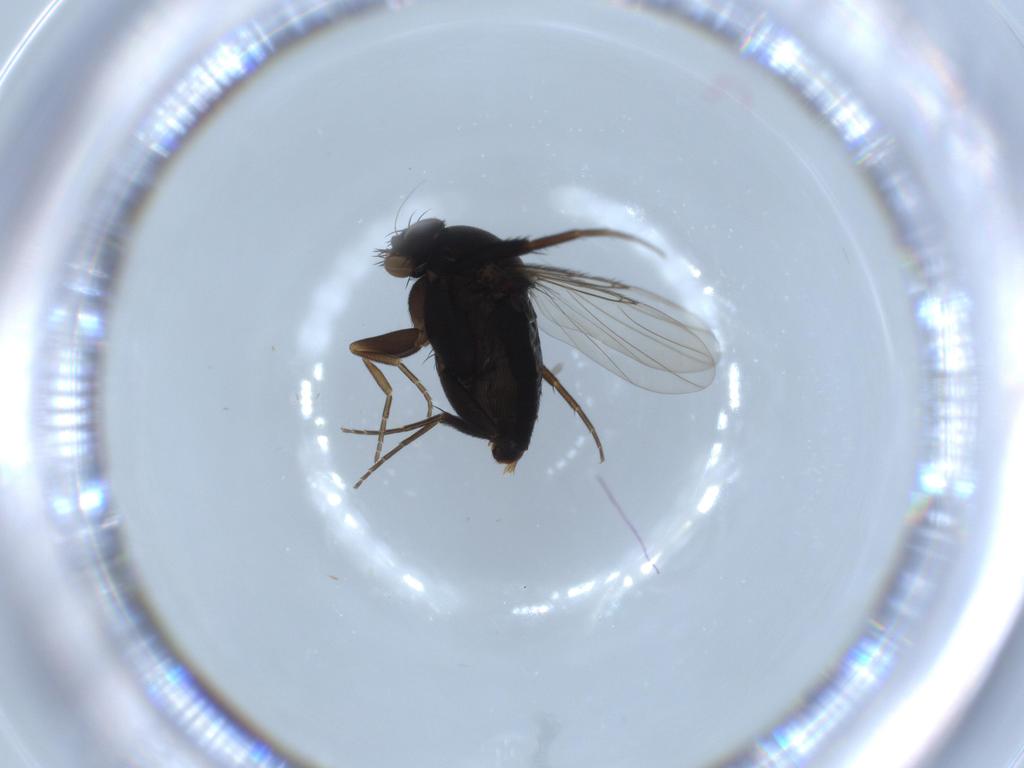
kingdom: Animalia
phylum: Arthropoda
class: Insecta
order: Diptera
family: Phoridae
